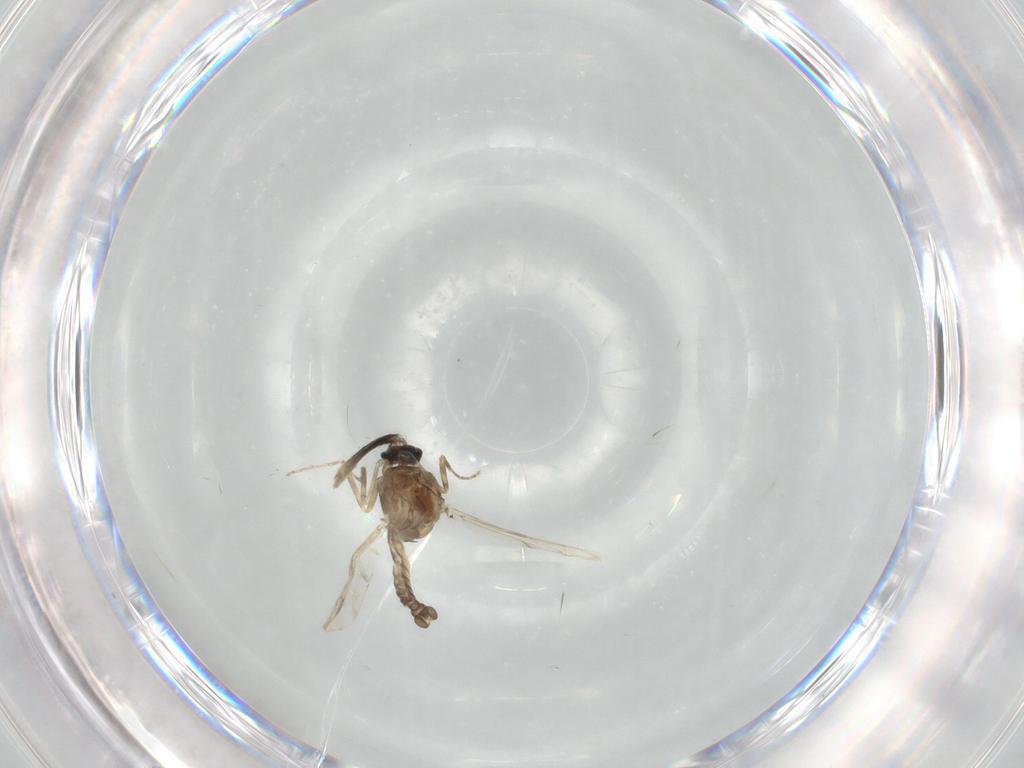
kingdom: Animalia
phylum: Arthropoda
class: Insecta
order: Diptera
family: Ceratopogonidae
